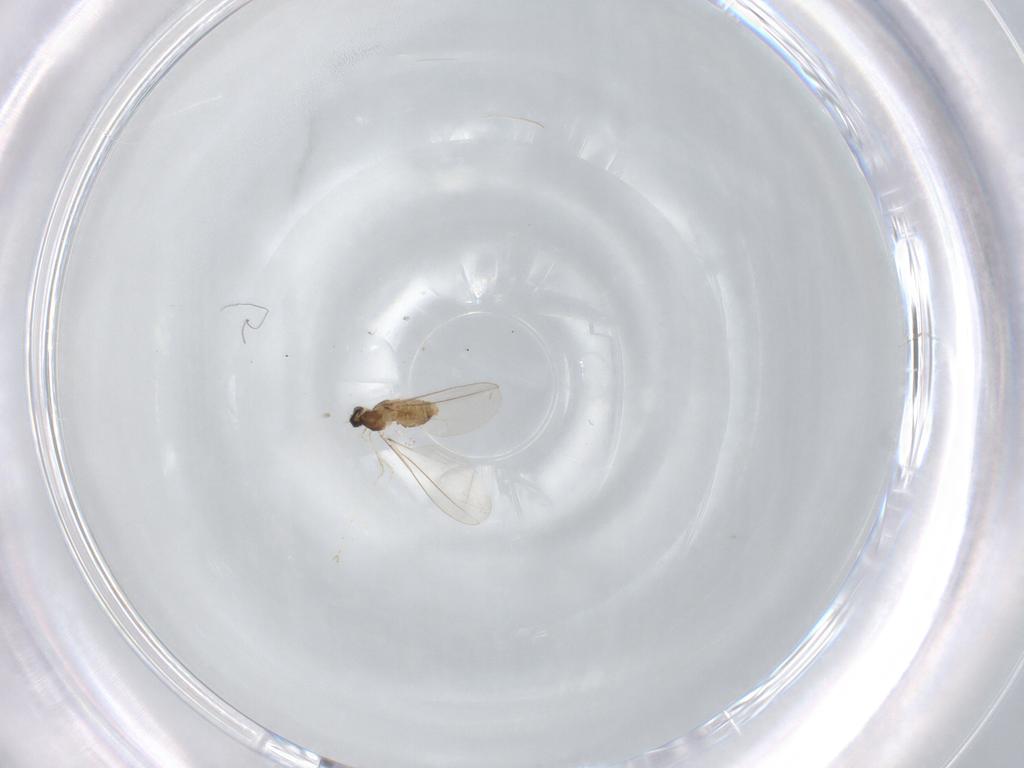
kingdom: Animalia
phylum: Arthropoda
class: Insecta
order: Diptera
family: Cecidomyiidae
